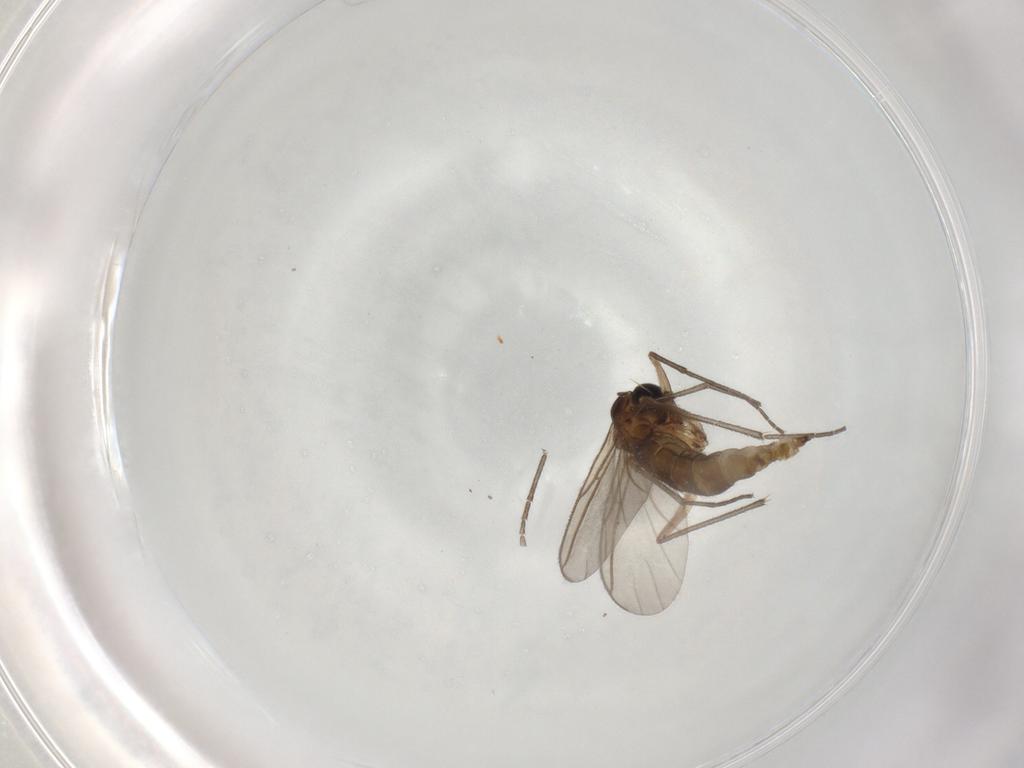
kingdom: Animalia
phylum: Arthropoda
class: Insecta
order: Diptera
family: Sciaridae
